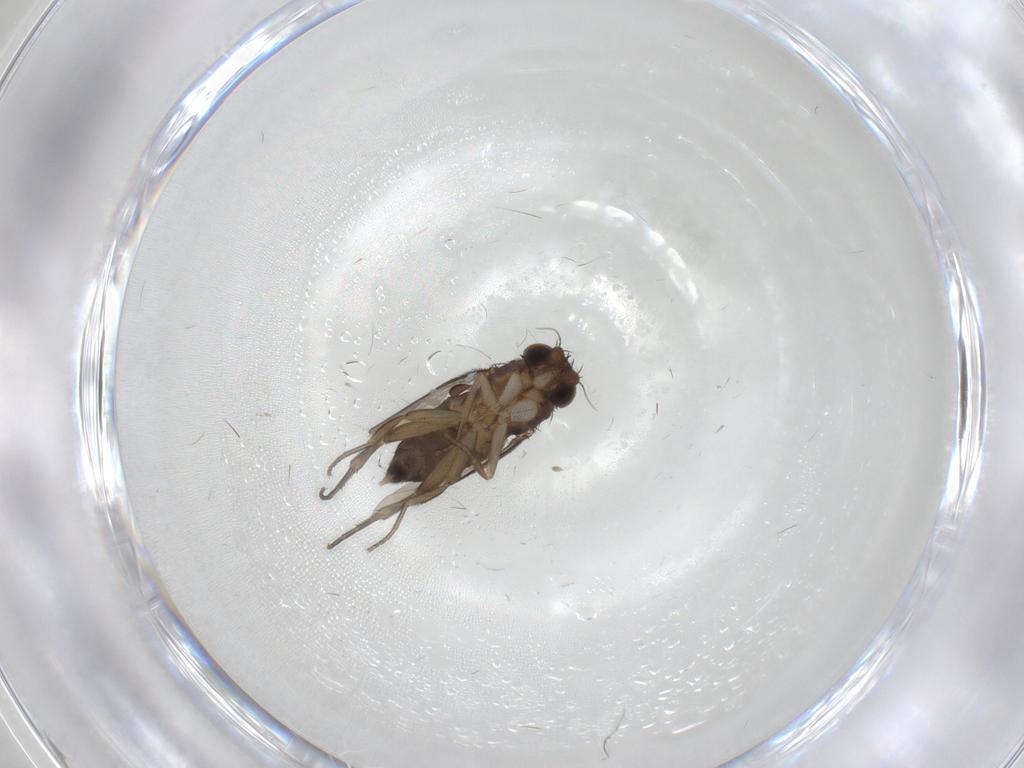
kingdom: Animalia
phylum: Arthropoda
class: Insecta
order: Diptera
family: Phoridae
